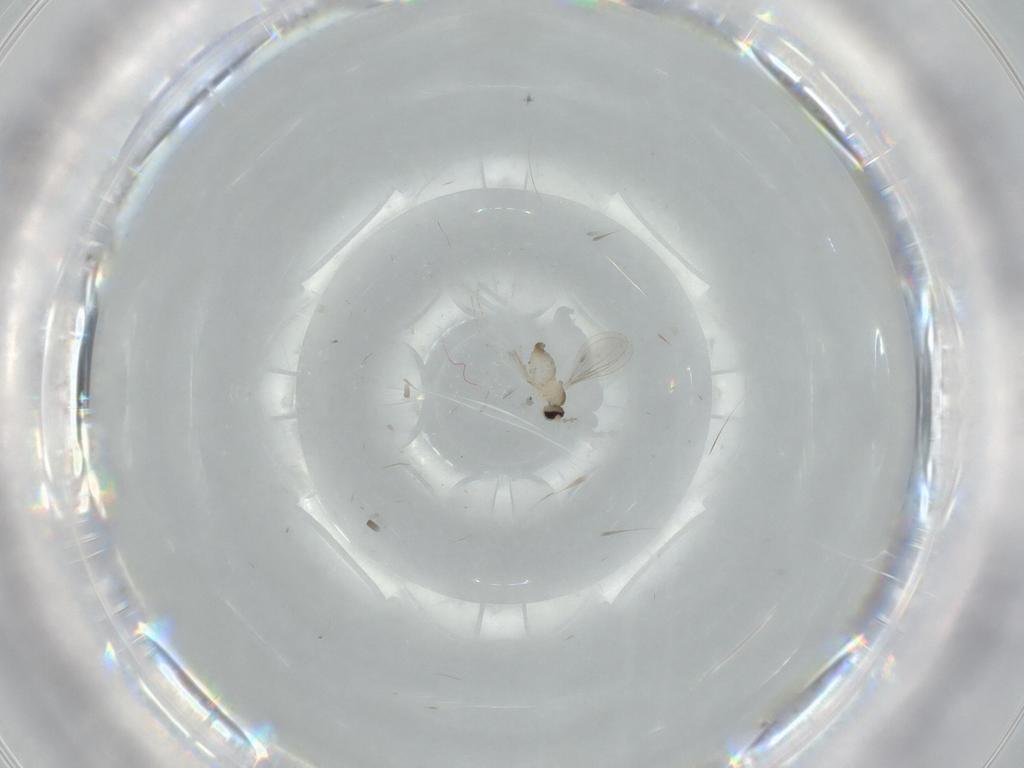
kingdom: Animalia
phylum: Arthropoda
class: Insecta
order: Diptera
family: Cecidomyiidae
